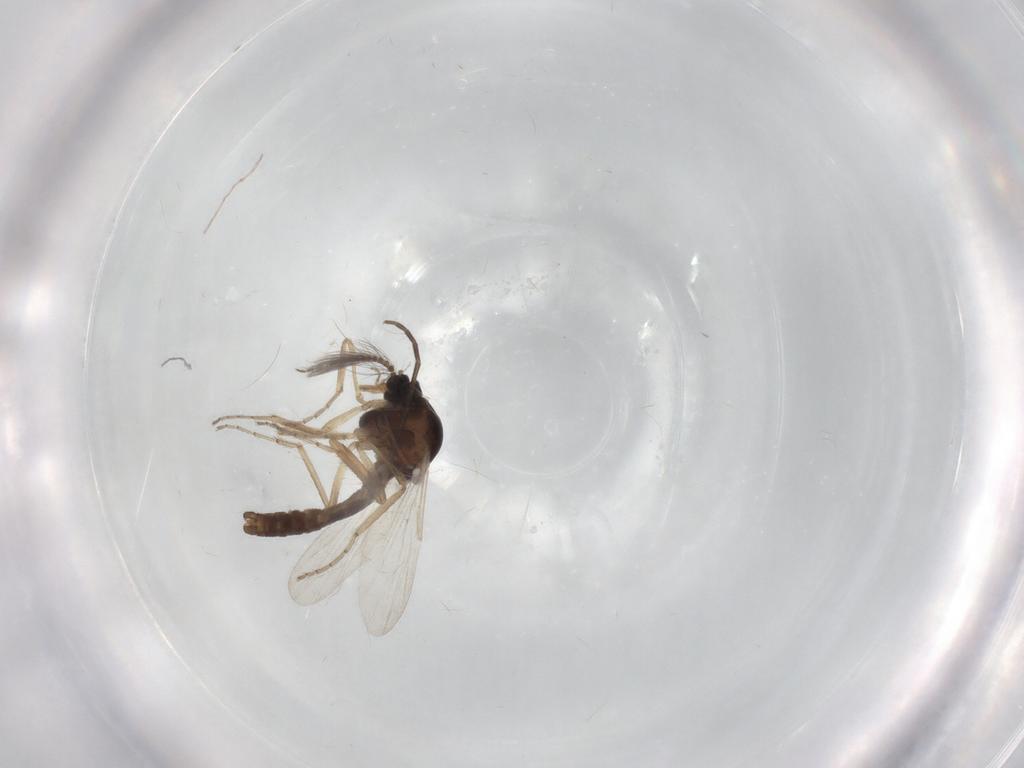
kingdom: Animalia
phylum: Arthropoda
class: Insecta
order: Diptera
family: Ceratopogonidae
